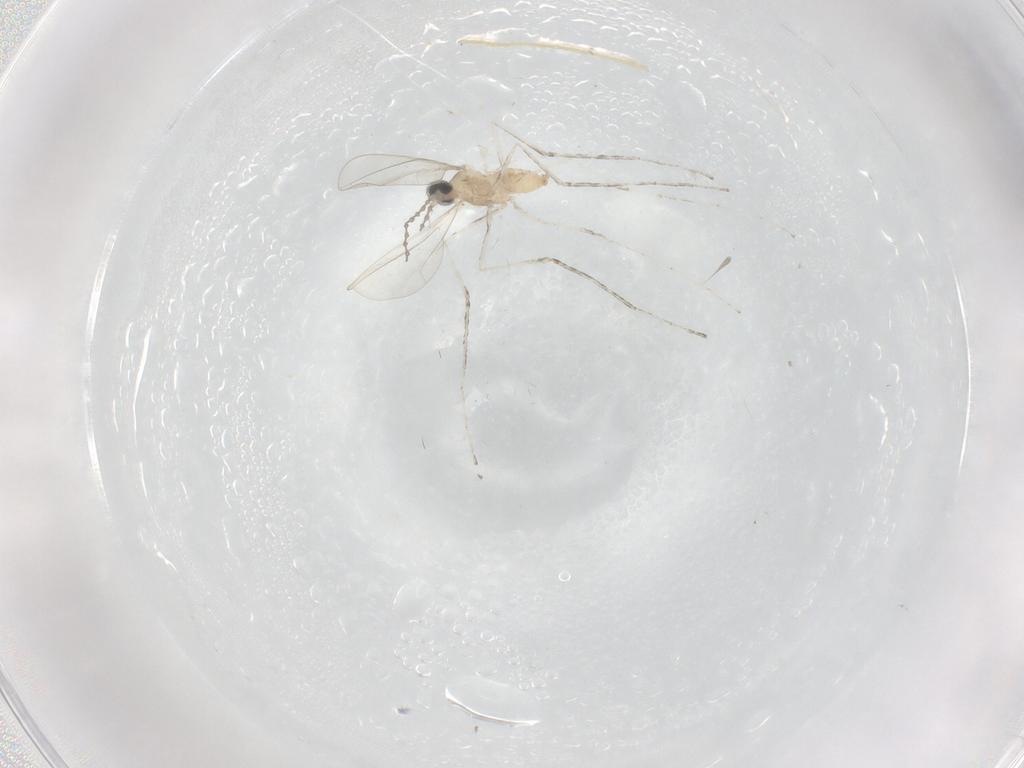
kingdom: Animalia
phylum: Arthropoda
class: Insecta
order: Diptera
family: Cecidomyiidae
